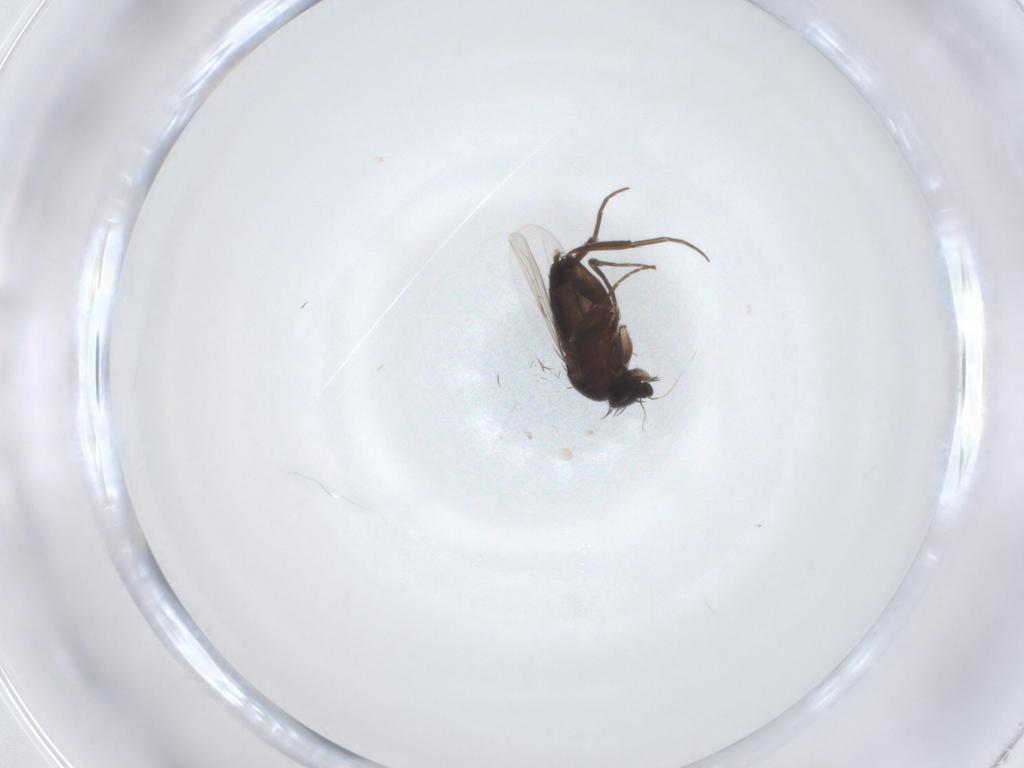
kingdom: Animalia
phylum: Arthropoda
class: Insecta
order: Diptera
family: Phoridae
